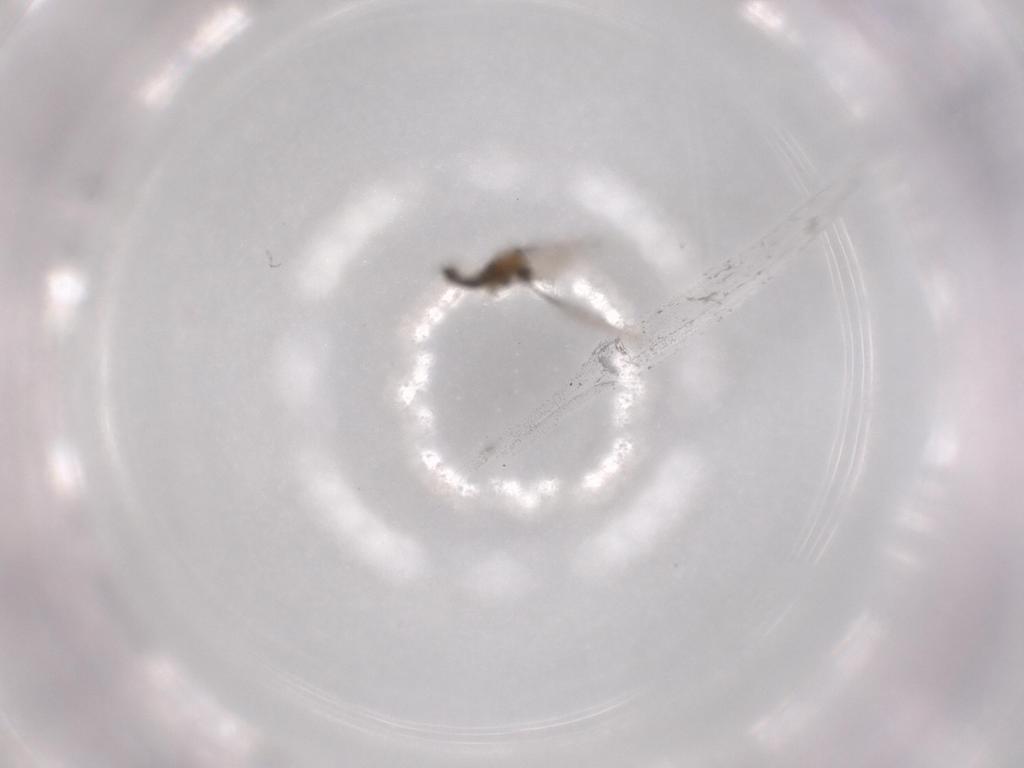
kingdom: Animalia
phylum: Arthropoda
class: Insecta
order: Diptera
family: Cecidomyiidae
